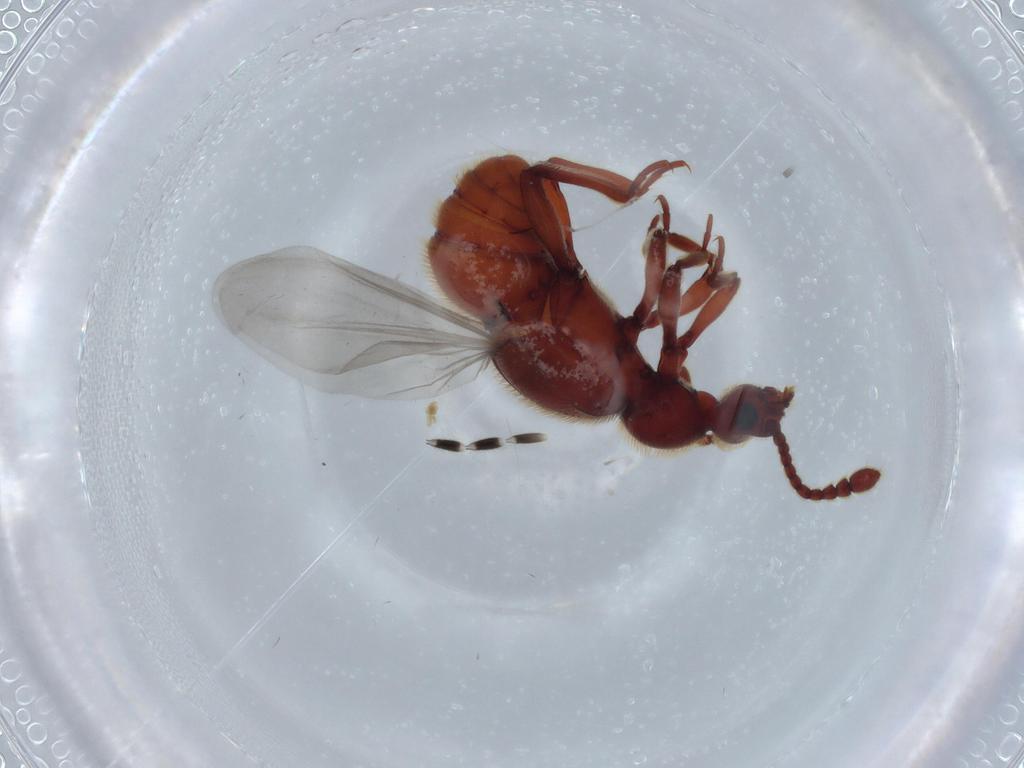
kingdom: Animalia
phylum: Arthropoda
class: Insecta
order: Coleoptera
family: Staphylinidae
